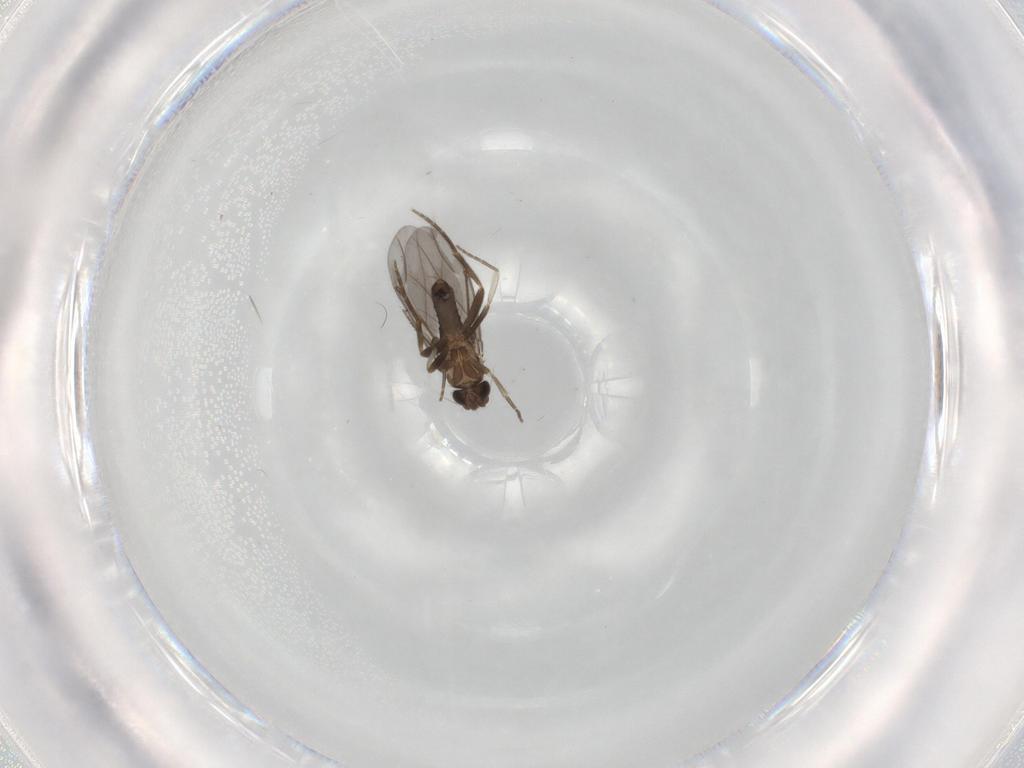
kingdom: Animalia
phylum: Arthropoda
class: Insecta
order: Diptera
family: Phoridae
